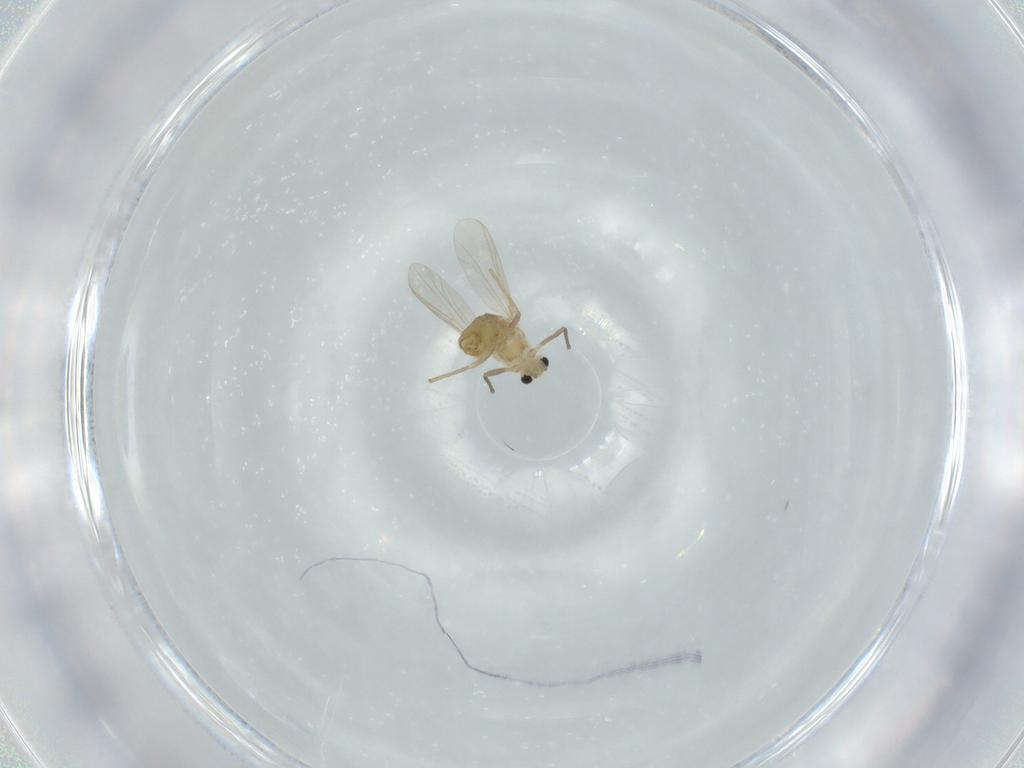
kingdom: Animalia
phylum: Arthropoda
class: Insecta
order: Diptera
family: Chironomidae
